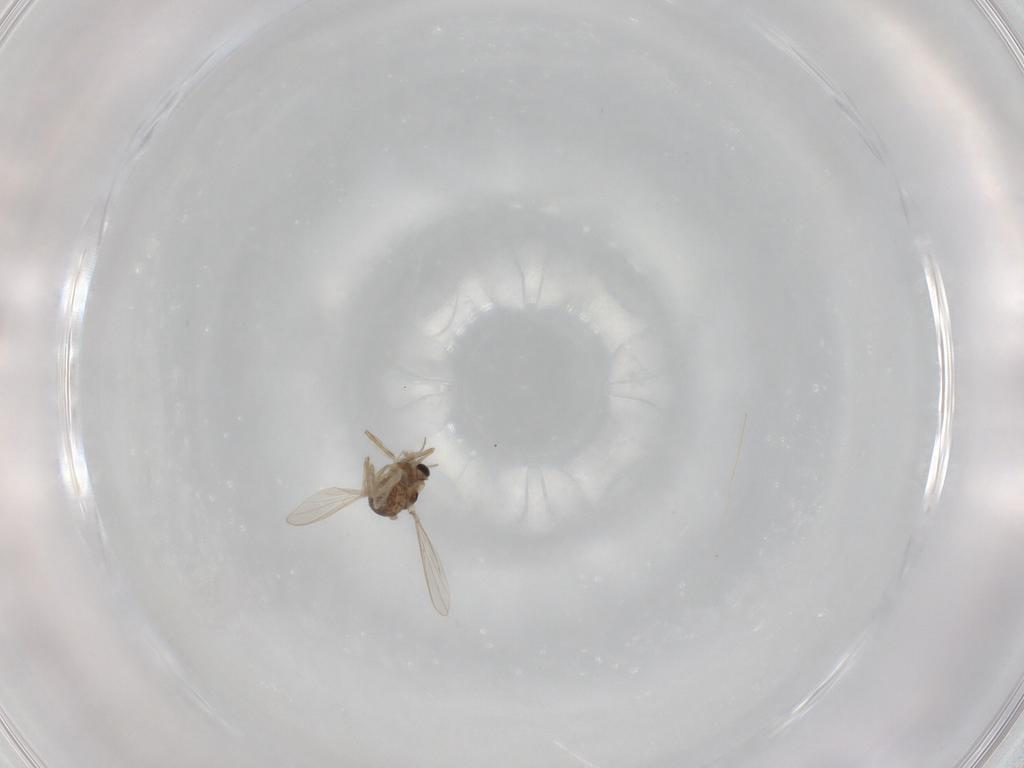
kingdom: Animalia
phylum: Arthropoda
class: Insecta
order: Diptera
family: Chironomidae
